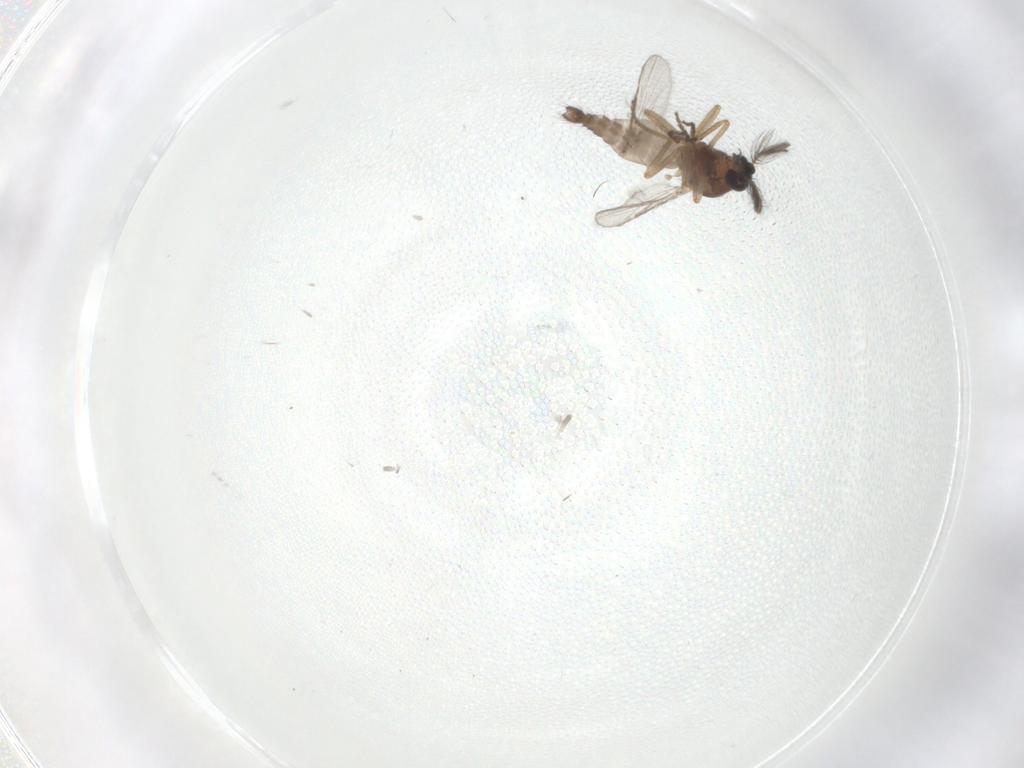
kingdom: Animalia
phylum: Arthropoda
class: Insecta
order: Diptera
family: Ceratopogonidae
